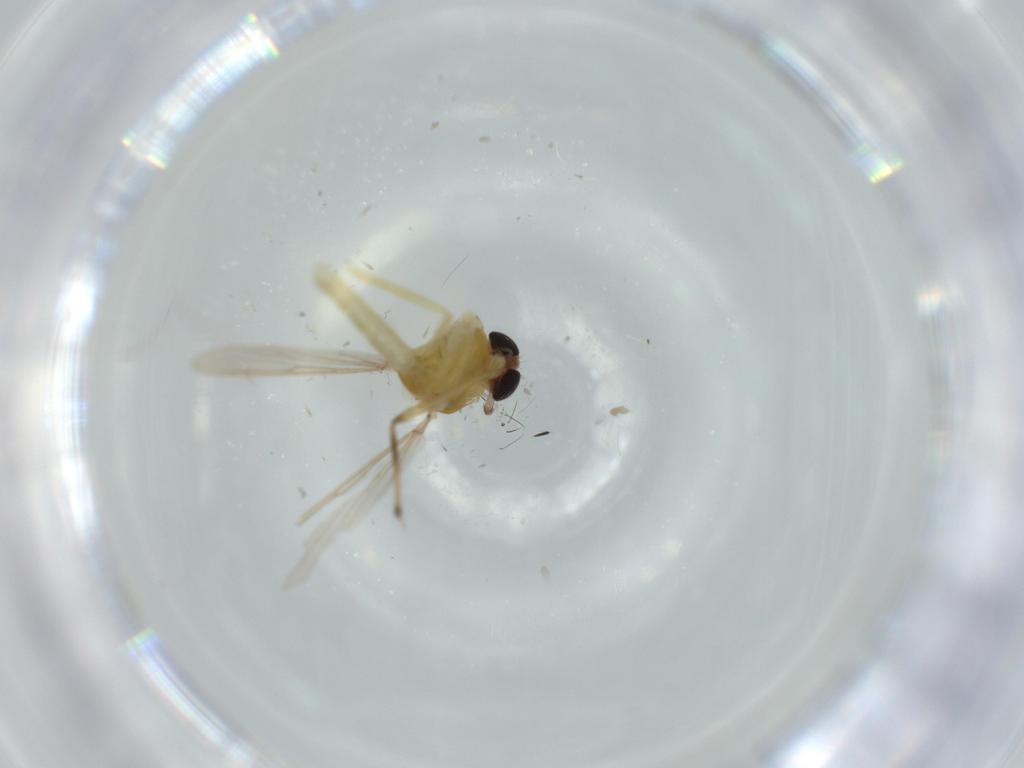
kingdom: Animalia
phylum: Arthropoda
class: Insecta
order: Diptera
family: Chironomidae
